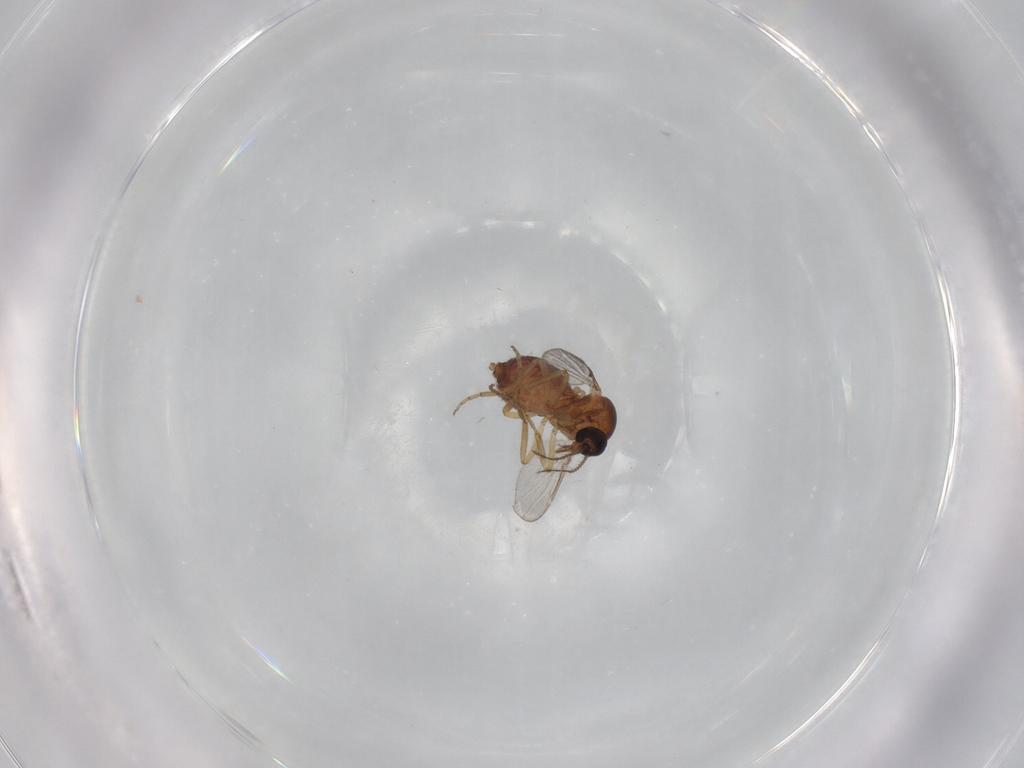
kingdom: Animalia
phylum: Arthropoda
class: Insecta
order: Diptera
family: Ceratopogonidae
